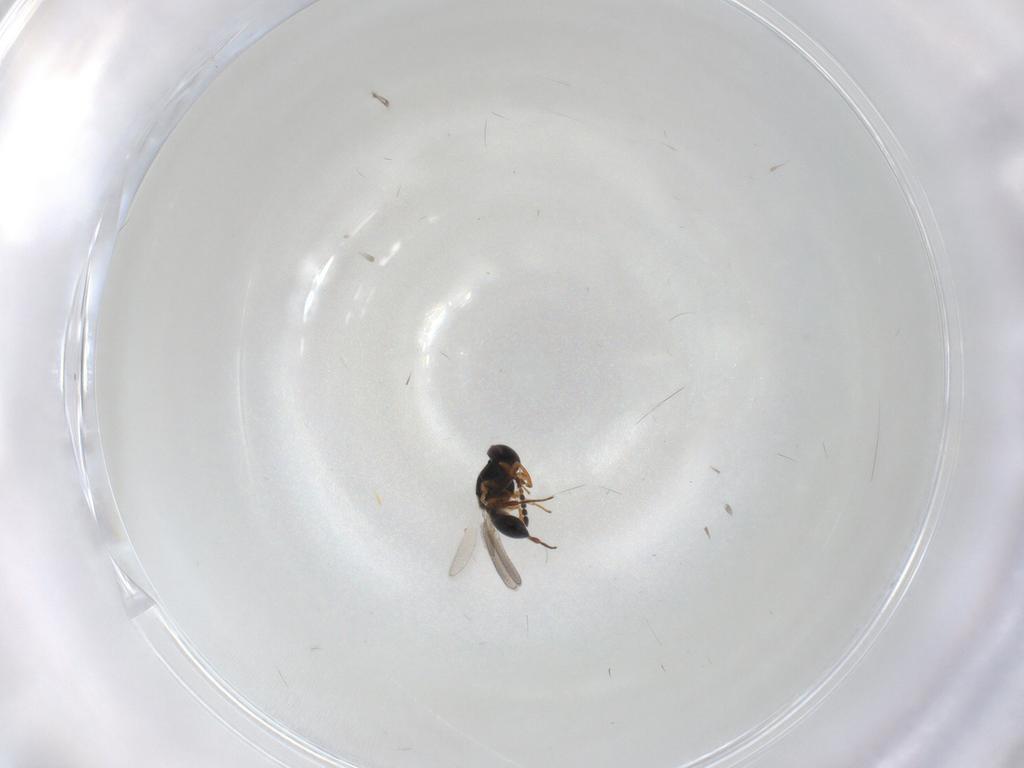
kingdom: Animalia
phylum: Arthropoda
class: Insecta
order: Hymenoptera
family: Platygastridae
